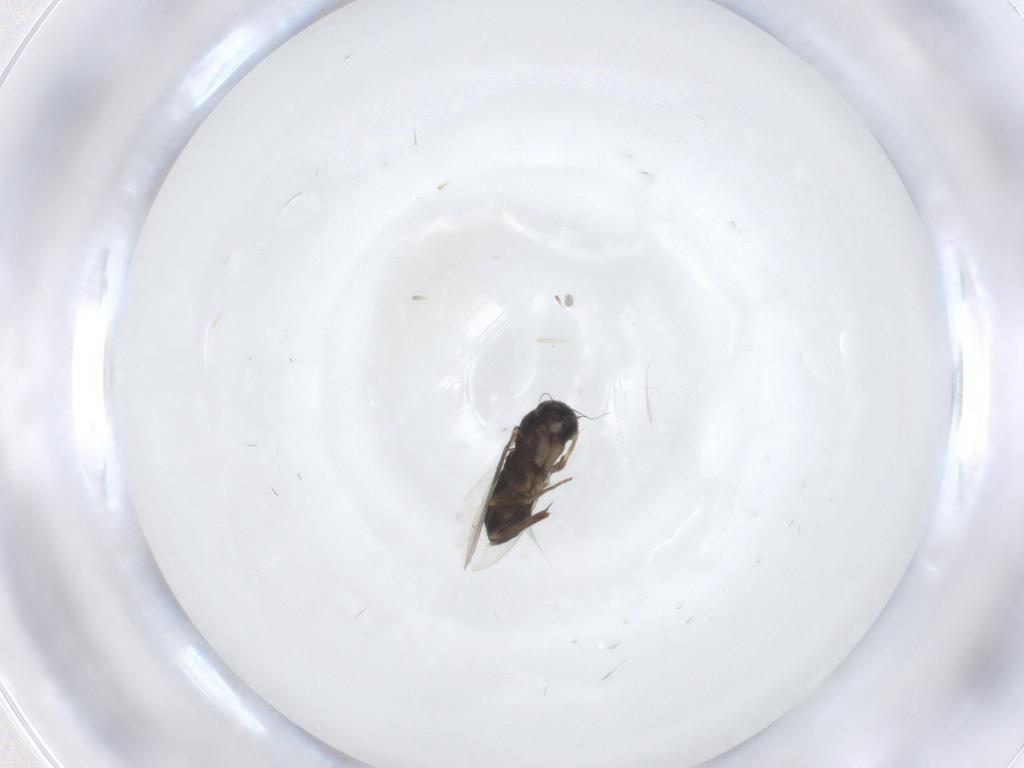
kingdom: Animalia
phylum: Arthropoda
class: Insecta
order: Diptera
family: Phoridae
